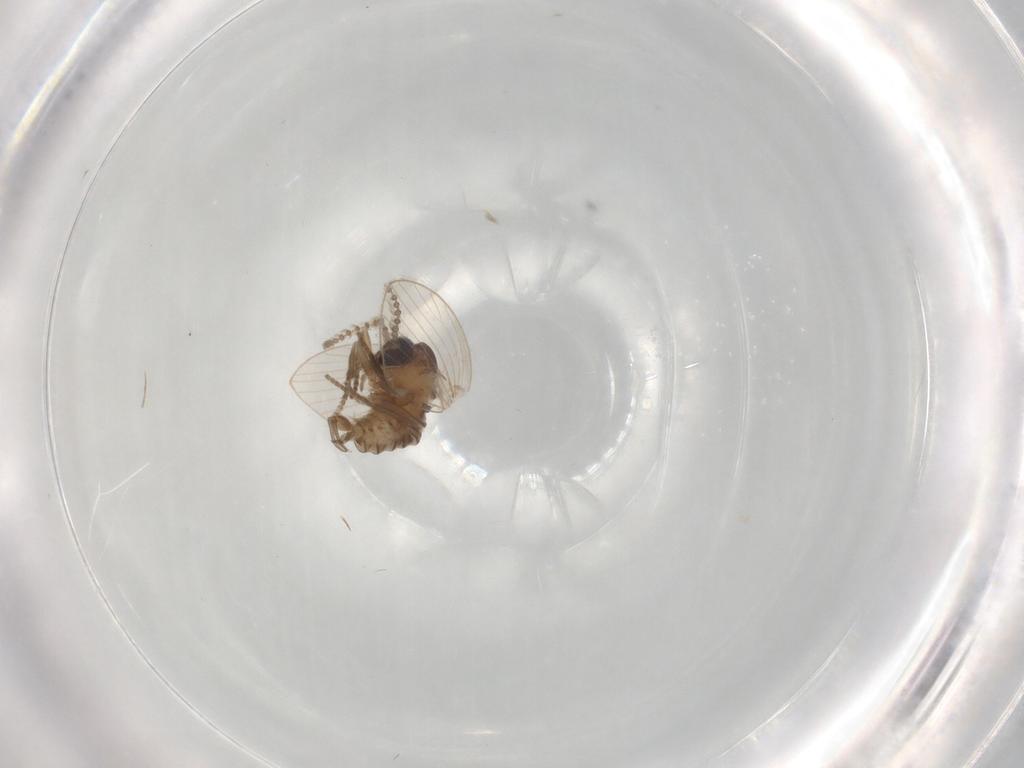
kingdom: Animalia
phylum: Arthropoda
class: Insecta
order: Diptera
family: Psychodidae
